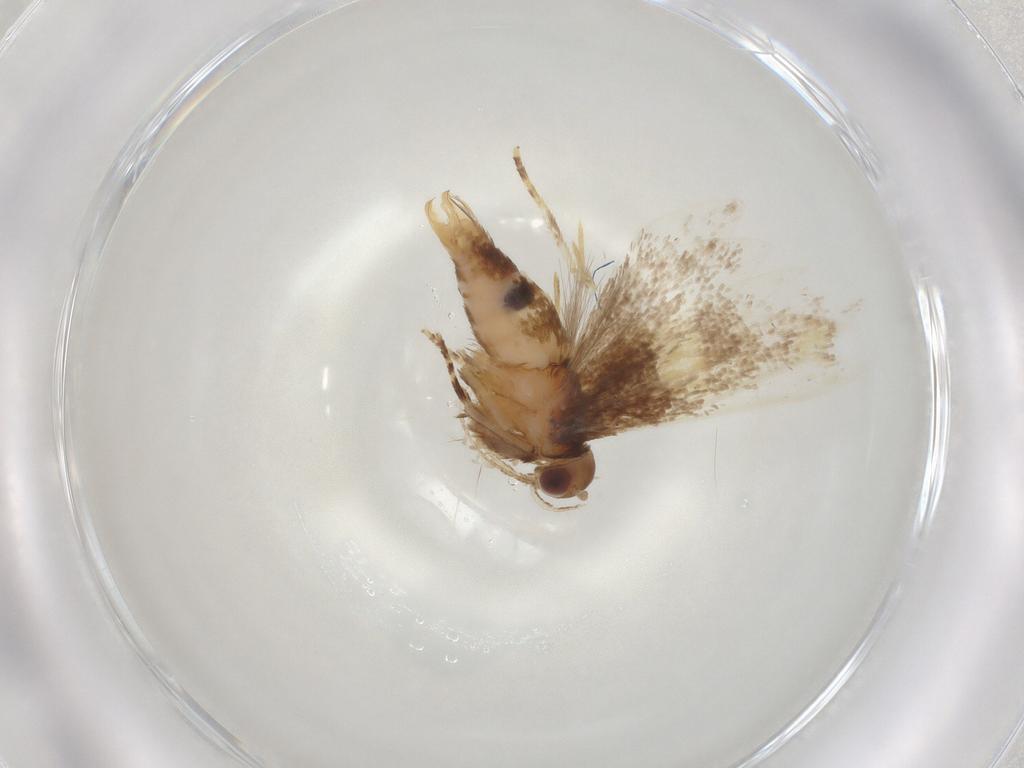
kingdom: Animalia
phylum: Arthropoda
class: Insecta
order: Lepidoptera
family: Oecophoridae
